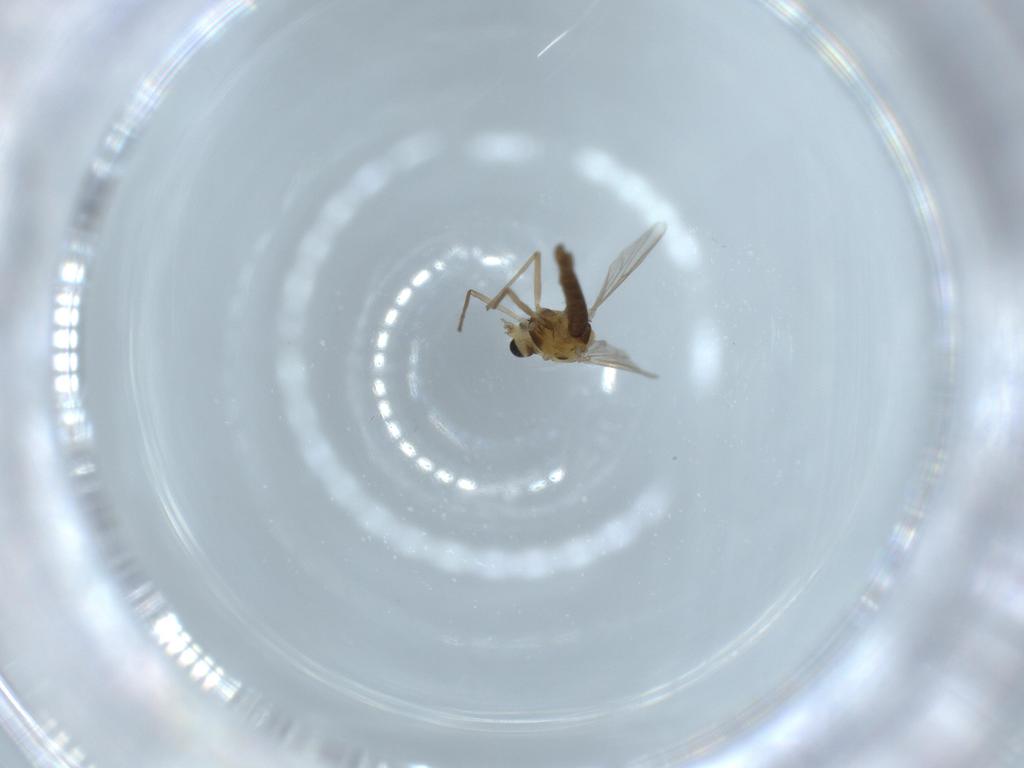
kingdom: Animalia
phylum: Arthropoda
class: Insecta
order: Diptera
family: Chironomidae
